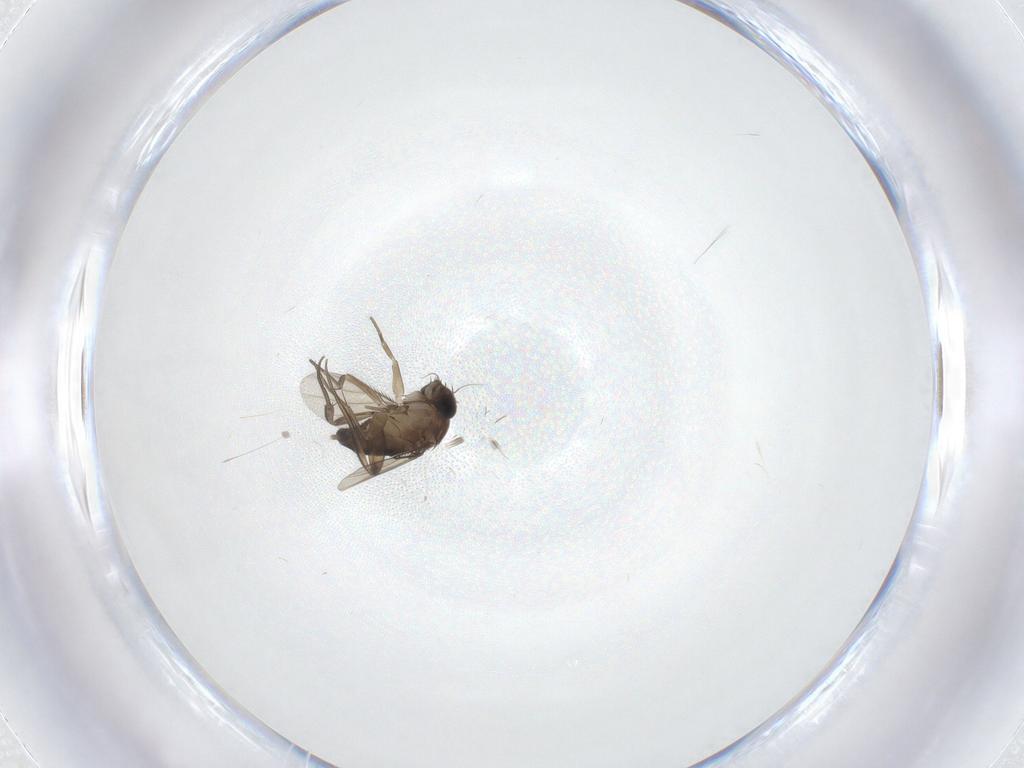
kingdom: Animalia
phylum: Arthropoda
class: Insecta
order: Diptera
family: Phoridae
